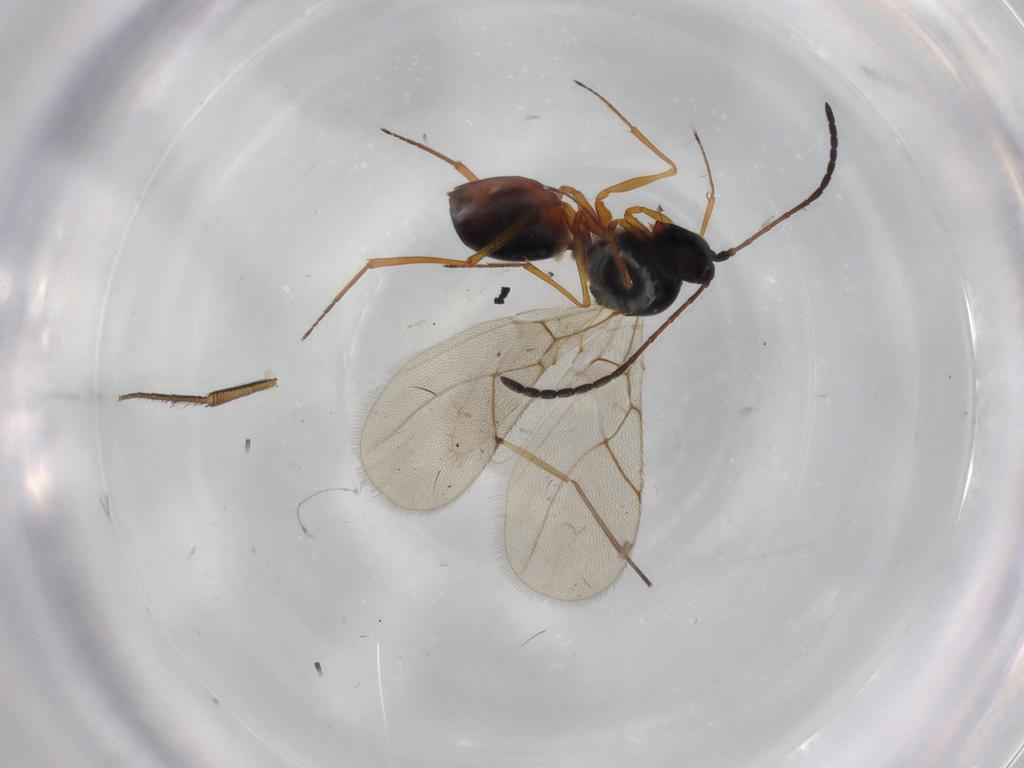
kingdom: Animalia
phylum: Arthropoda
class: Insecta
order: Hymenoptera
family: Figitidae
